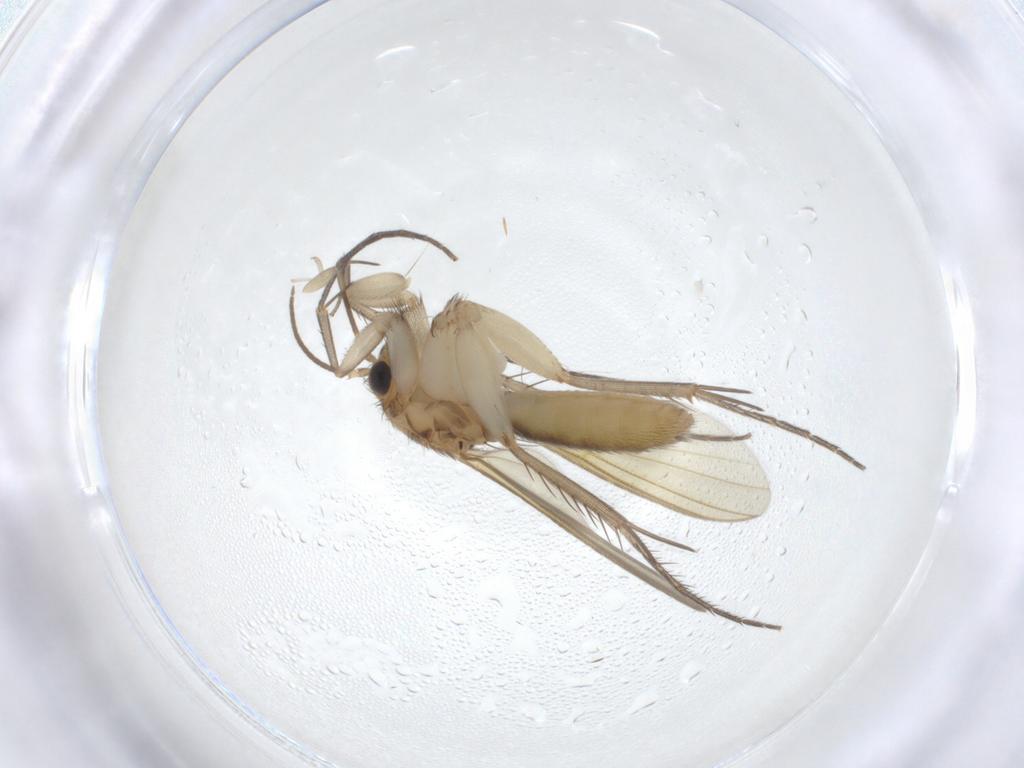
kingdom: Animalia
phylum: Arthropoda
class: Insecta
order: Diptera
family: Mycetophilidae
